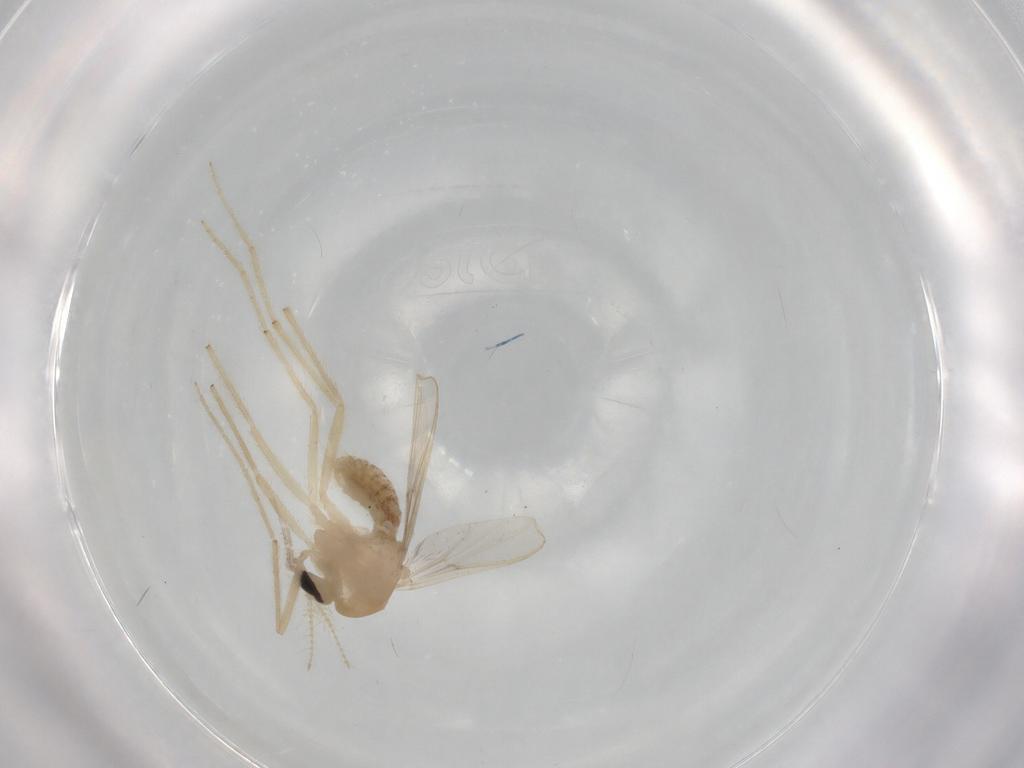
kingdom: Animalia
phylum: Arthropoda
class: Insecta
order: Diptera
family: Chironomidae
